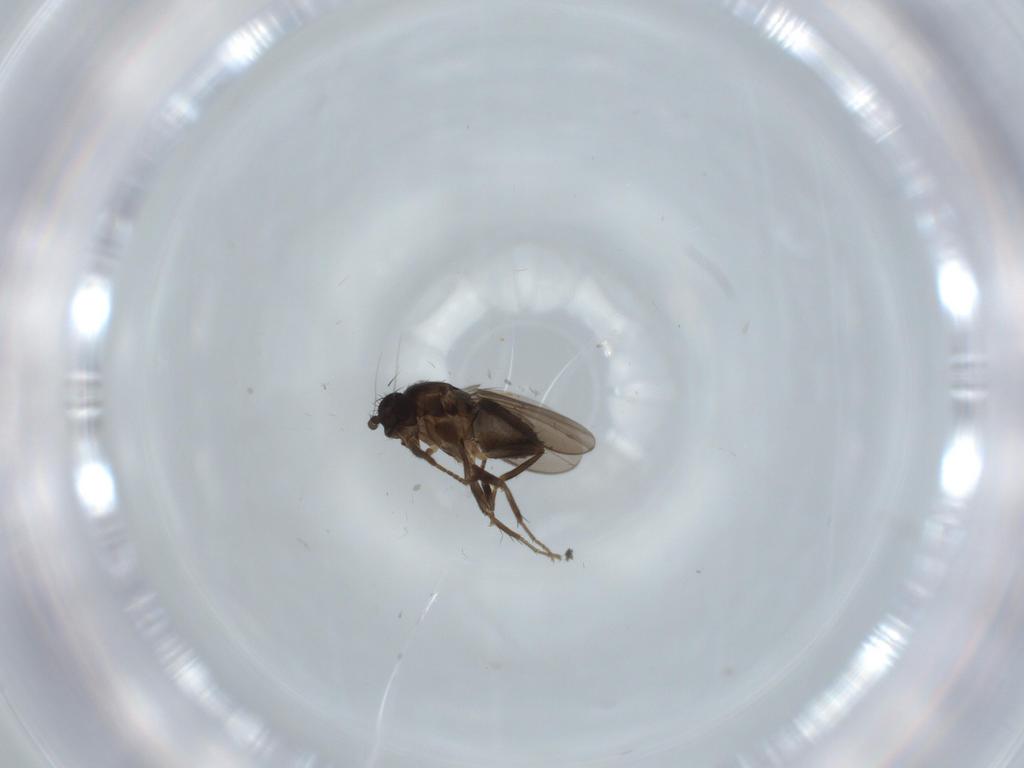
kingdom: Animalia
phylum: Arthropoda
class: Insecta
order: Diptera
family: Sphaeroceridae
